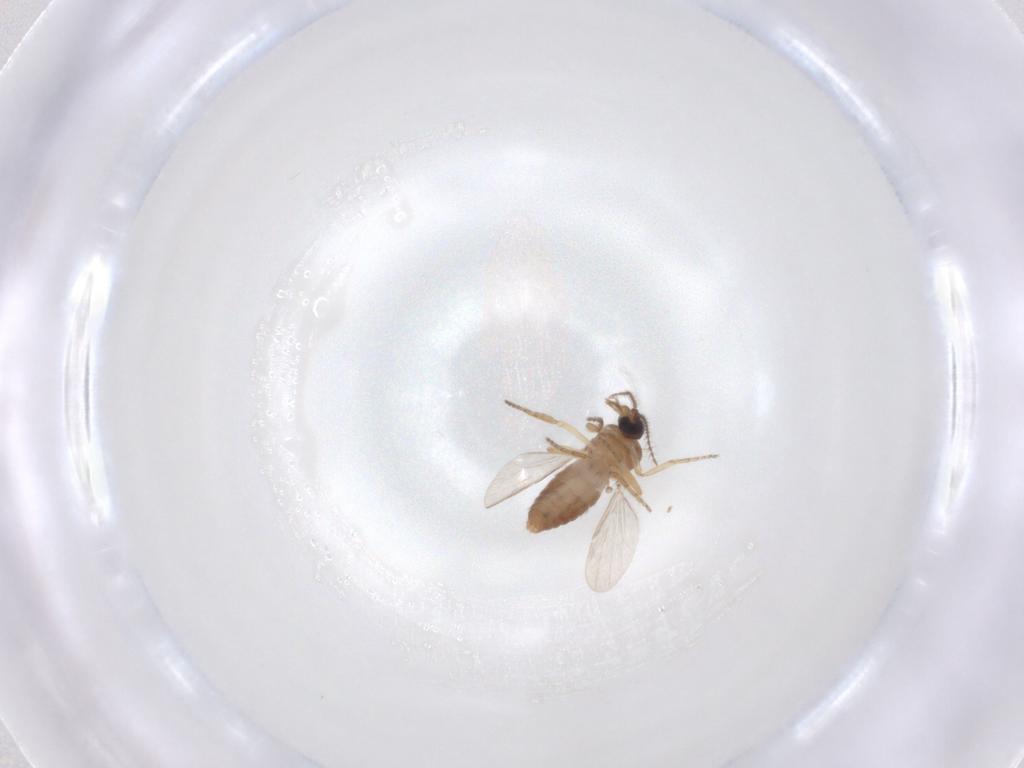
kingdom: Animalia
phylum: Arthropoda
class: Insecta
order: Diptera
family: Ceratopogonidae
